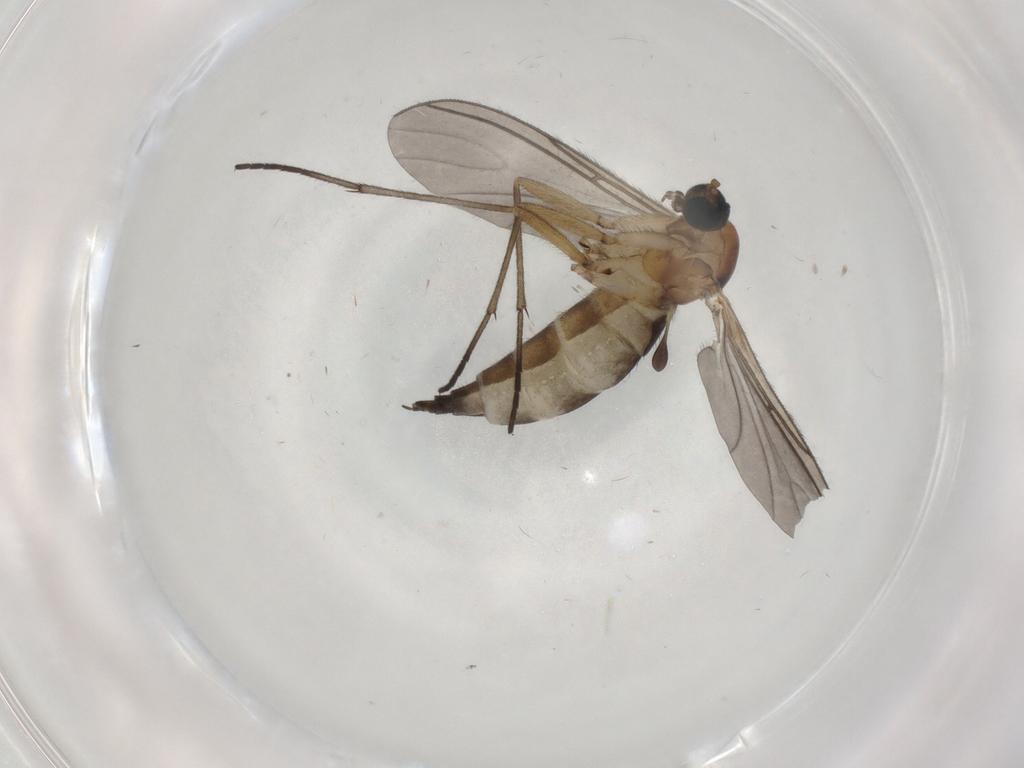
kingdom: Animalia
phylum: Arthropoda
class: Insecta
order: Diptera
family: Sciaridae
